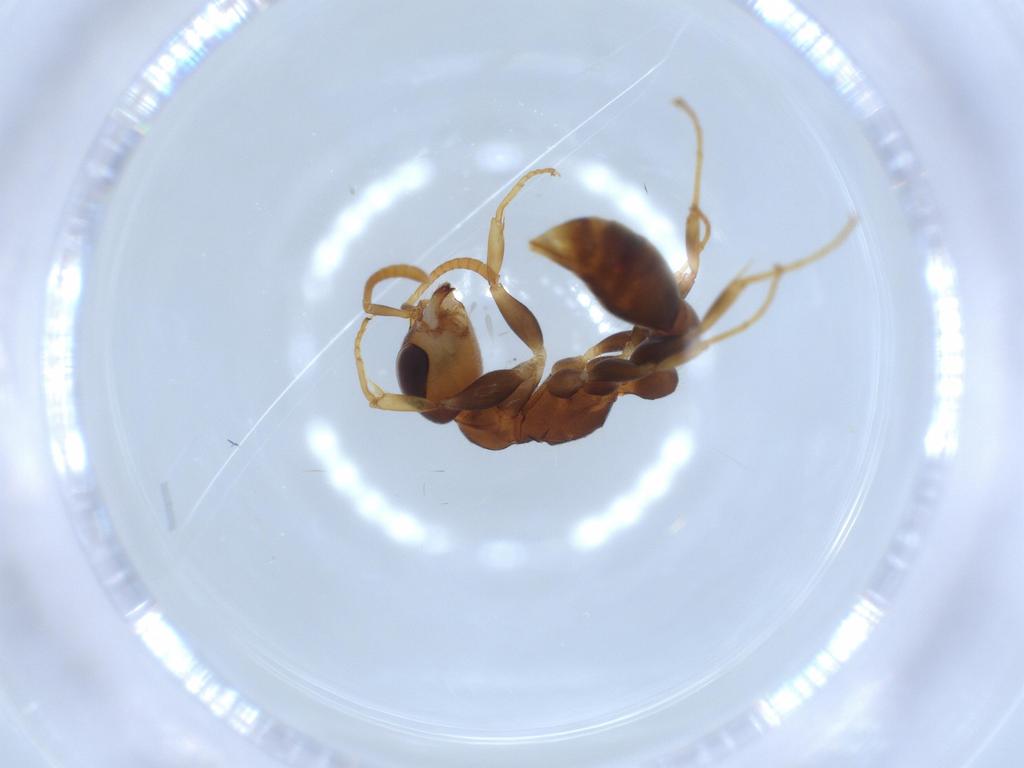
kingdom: Animalia
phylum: Arthropoda
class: Insecta
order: Hymenoptera
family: Formicidae
